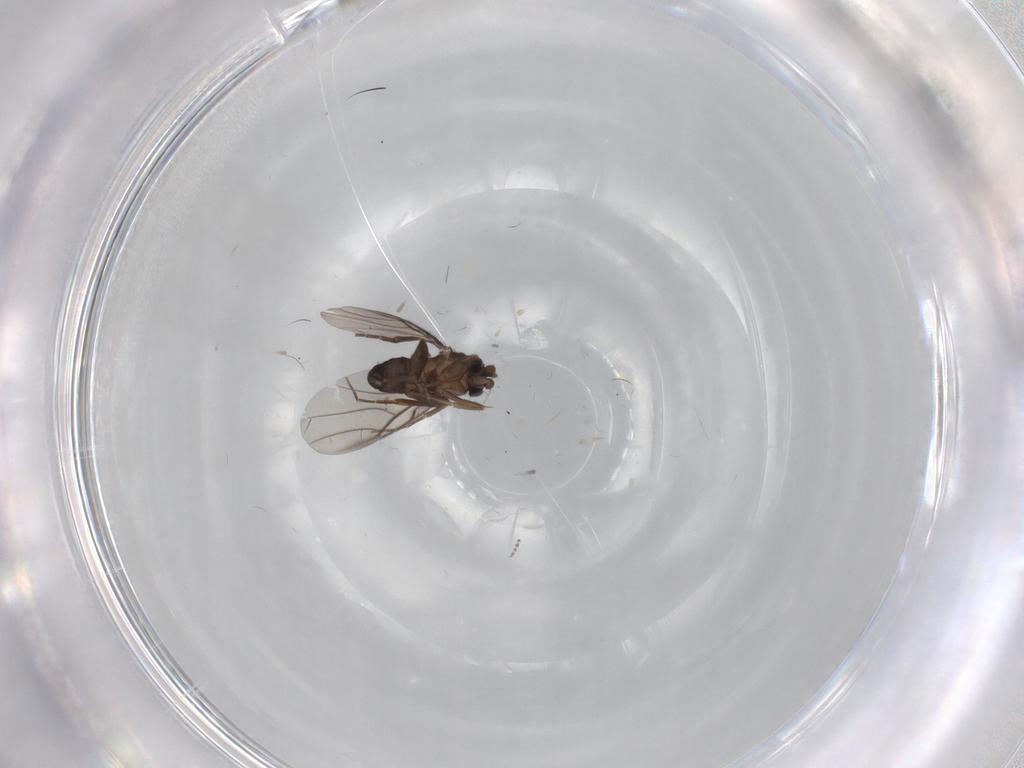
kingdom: Animalia
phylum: Arthropoda
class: Insecta
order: Diptera
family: Phoridae
